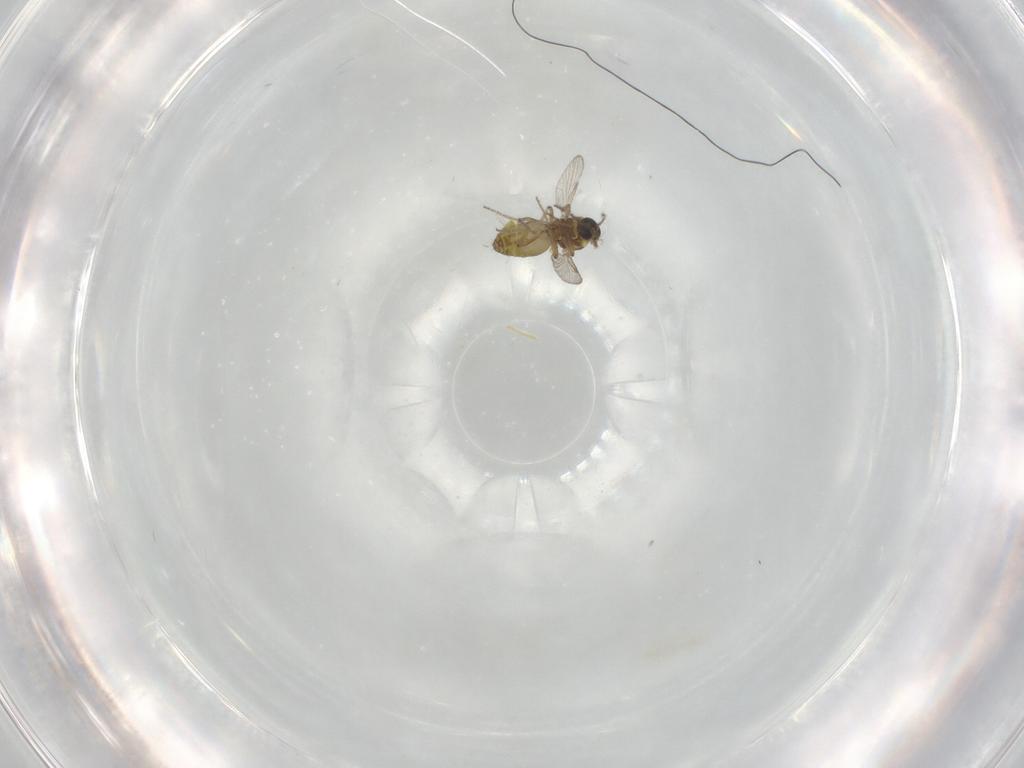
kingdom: Animalia
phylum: Arthropoda
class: Insecta
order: Diptera
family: Ceratopogonidae
